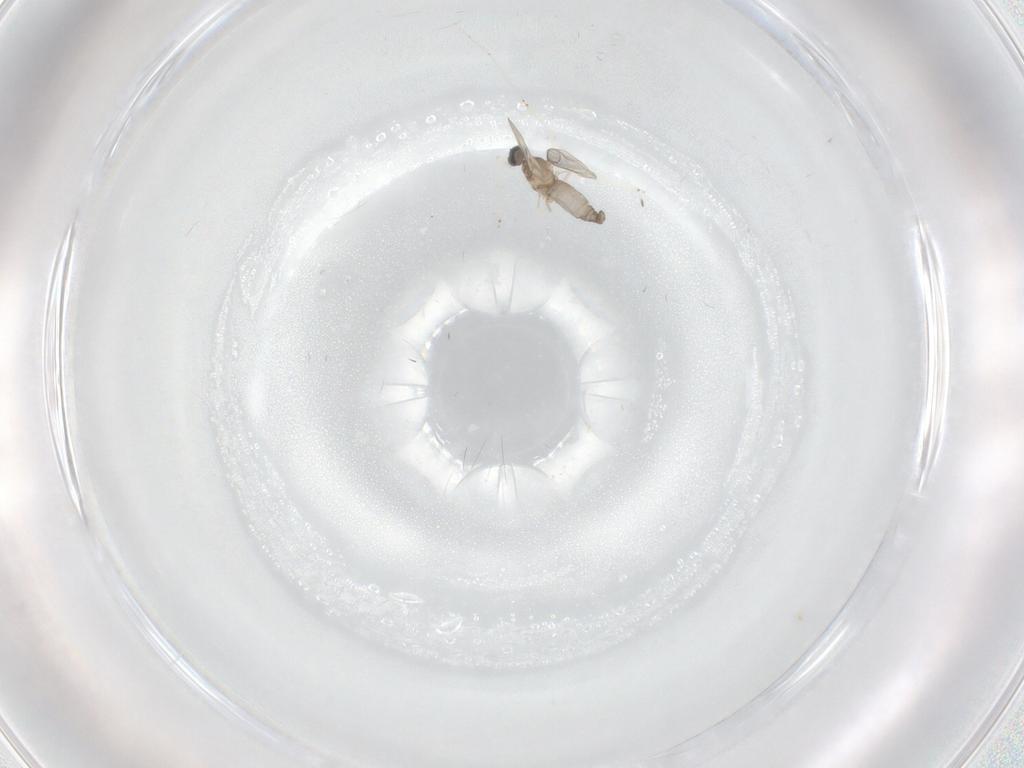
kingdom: Animalia
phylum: Arthropoda
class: Insecta
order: Diptera
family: Cecidomyiidae
